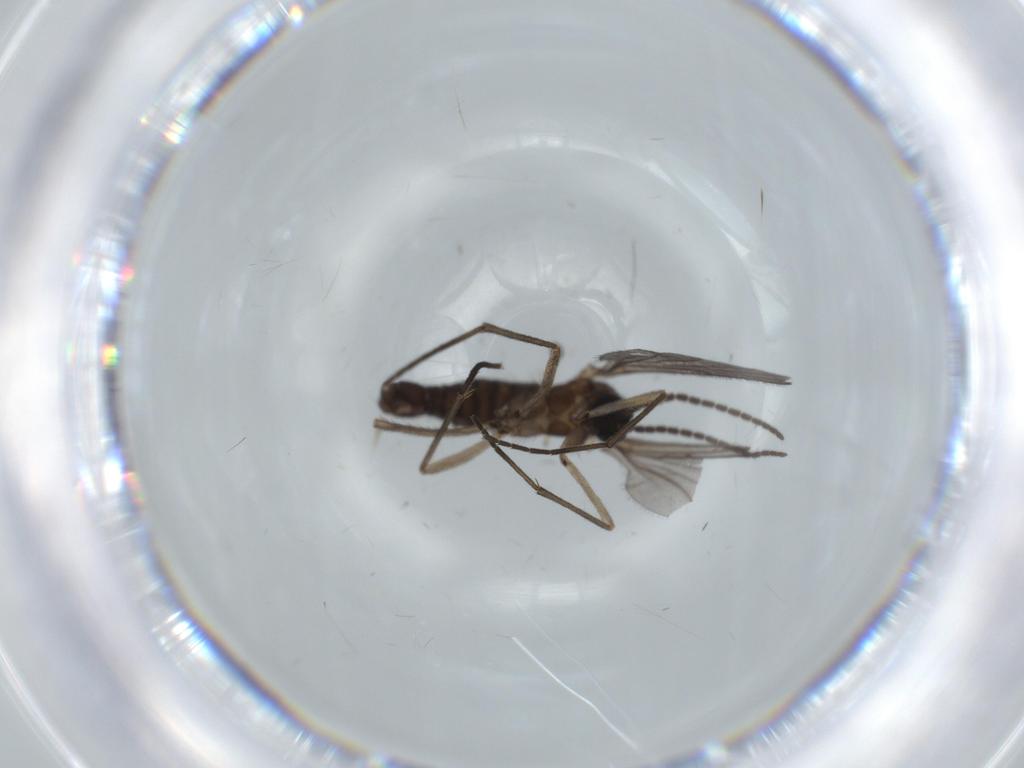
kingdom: Animalia
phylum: Arthropoda
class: Insecta
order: Diptera
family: Sciaridae
